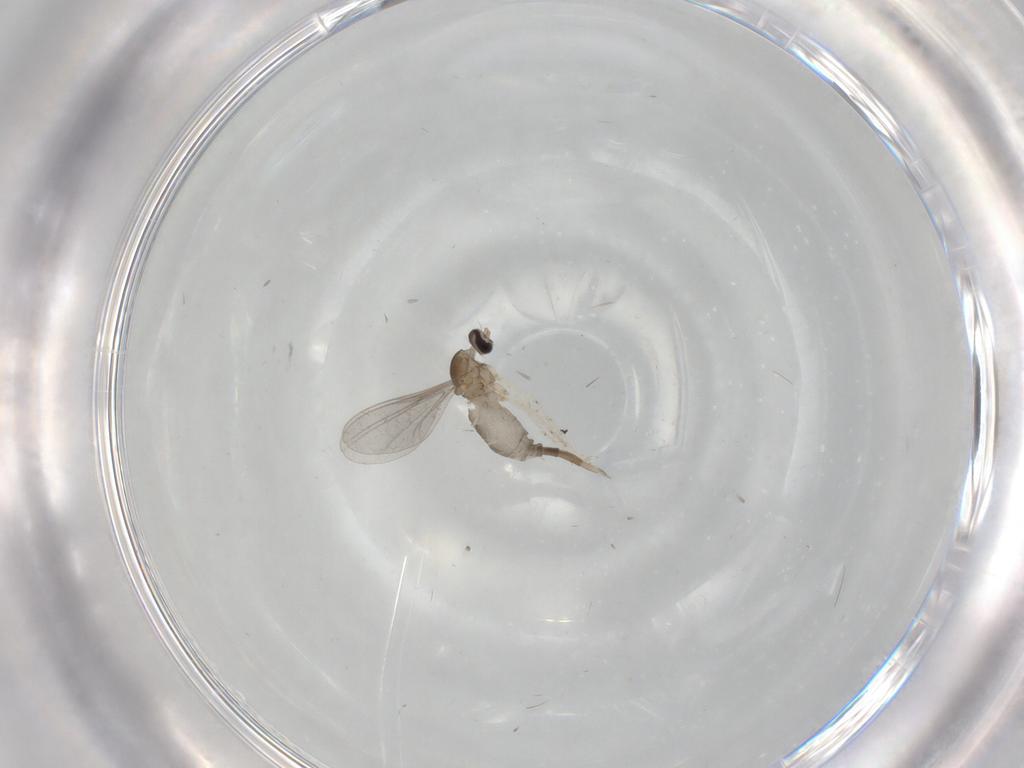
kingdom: Animalia
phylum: Arthropoda
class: Insecta
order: Diptera
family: Cecidomyiidae
